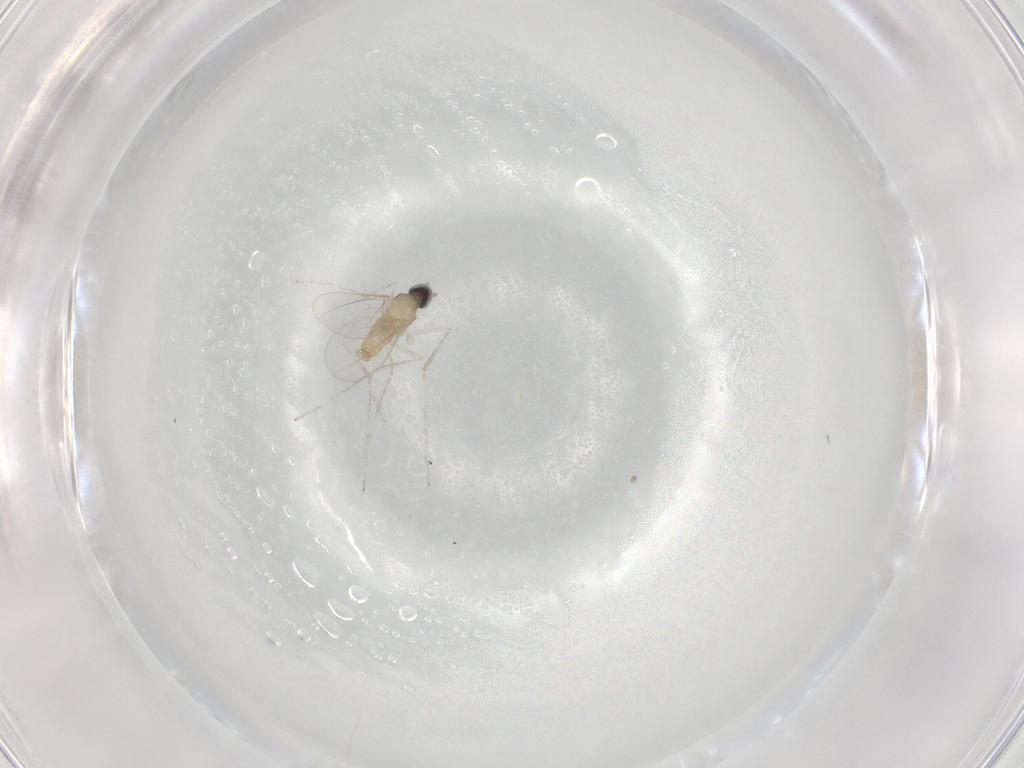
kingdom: Animalia
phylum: Arthropoda
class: Insecta
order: Diptera
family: Cecidomyiidae
